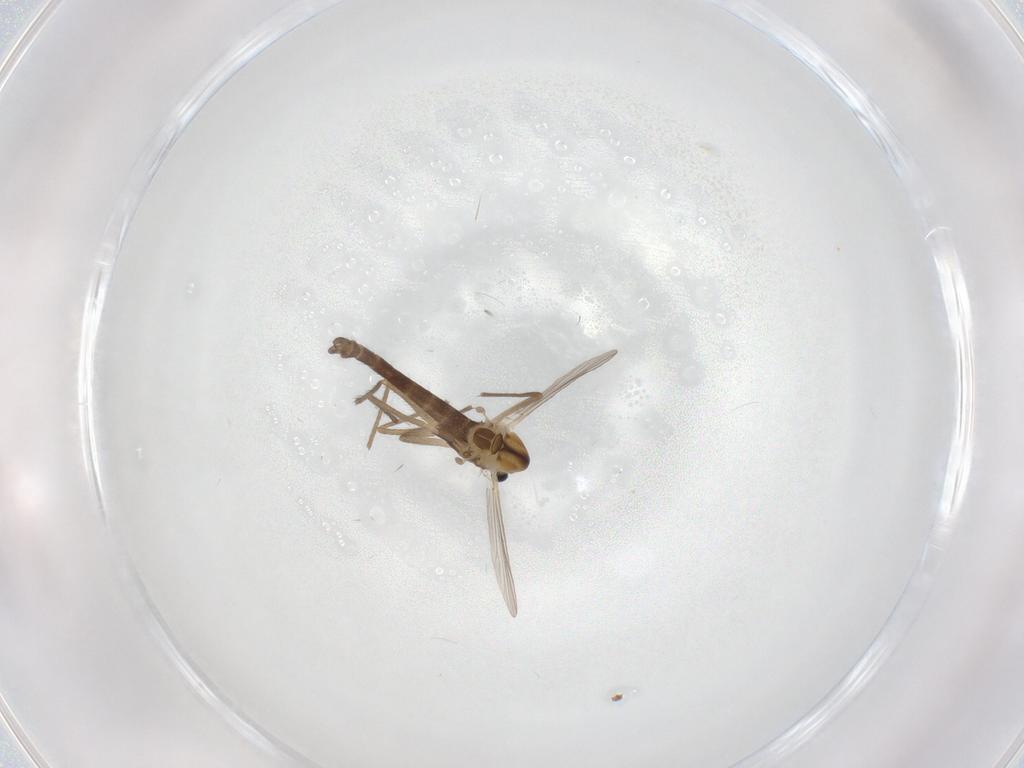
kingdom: Animalia
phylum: Arthropoda
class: Insecta
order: Diptera
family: Chironomidae
